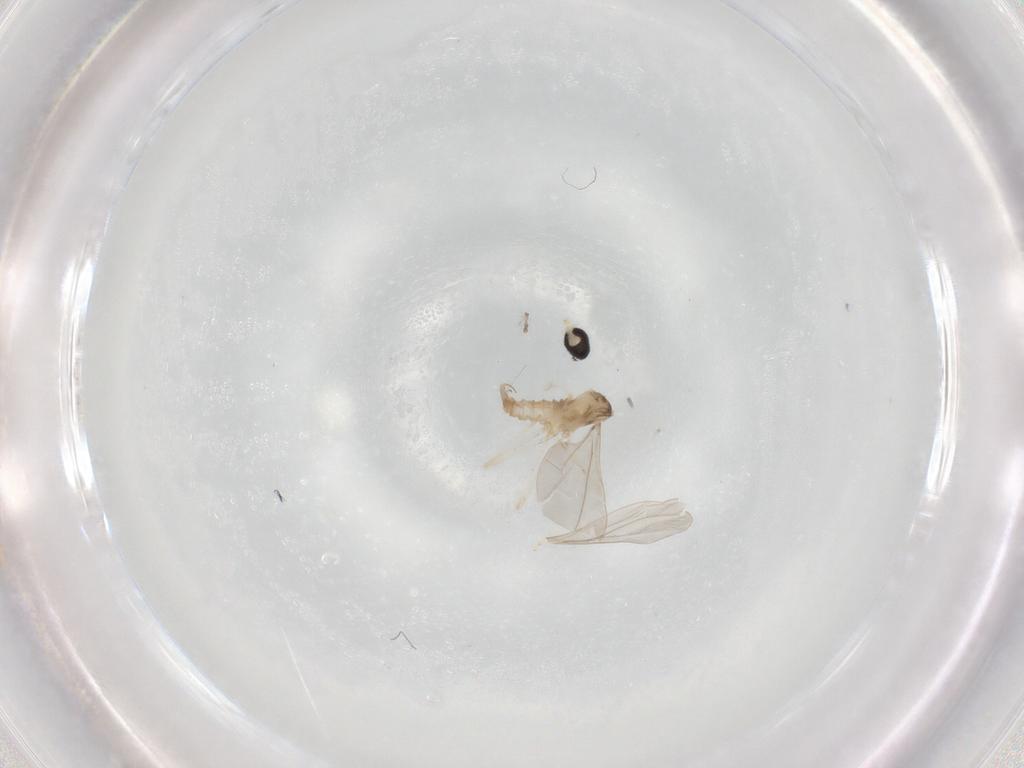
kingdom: Animalia
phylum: Arthropoda
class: Insecta
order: Diptera
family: Cecidomyiidae
